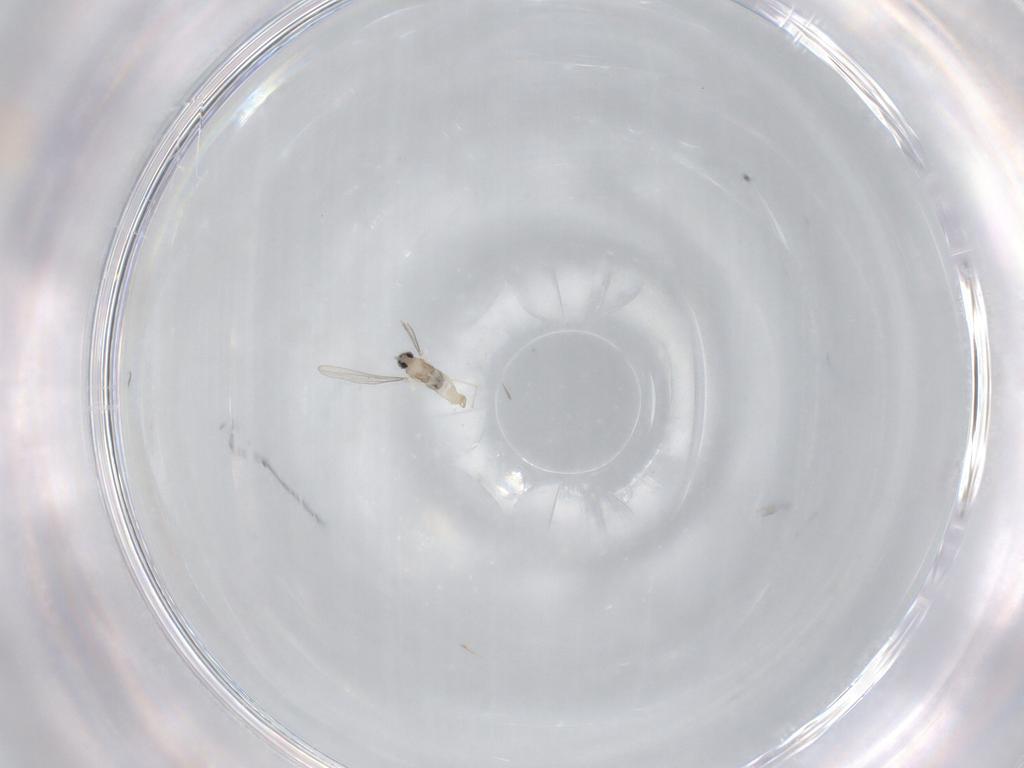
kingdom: Animalia
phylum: Arthropoda
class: Insecta
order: Diptera
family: Cecidomyiidae
